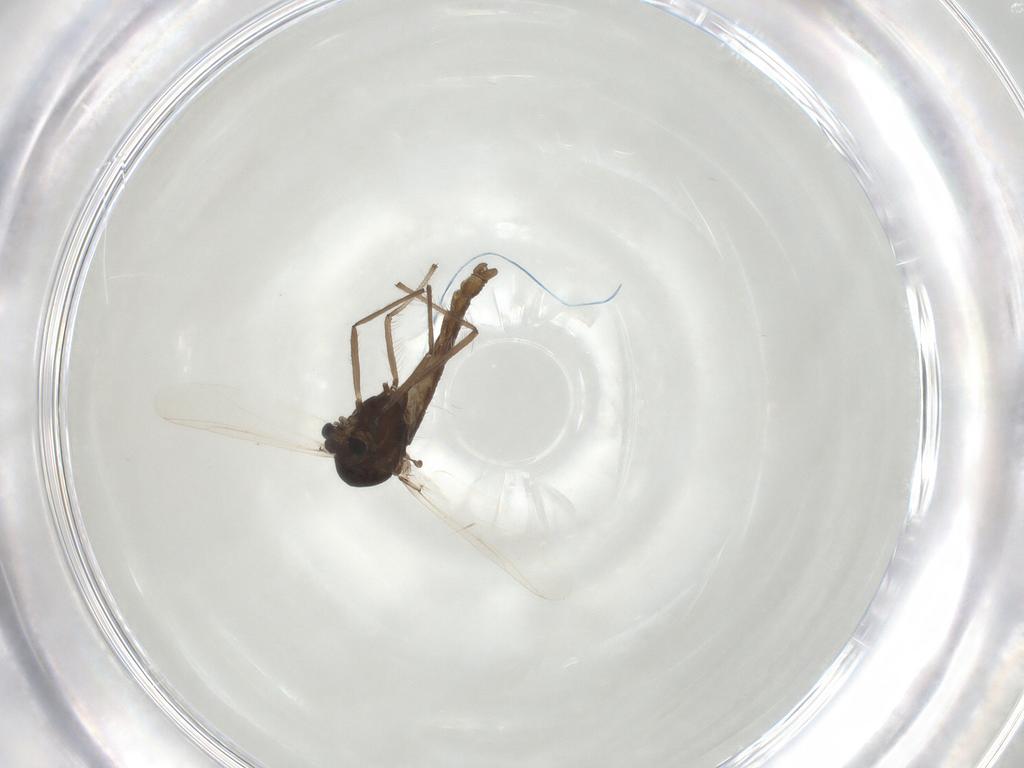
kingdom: Animalia
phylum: Arthropoda
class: Insecta
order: Diptera
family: Chironomidae
